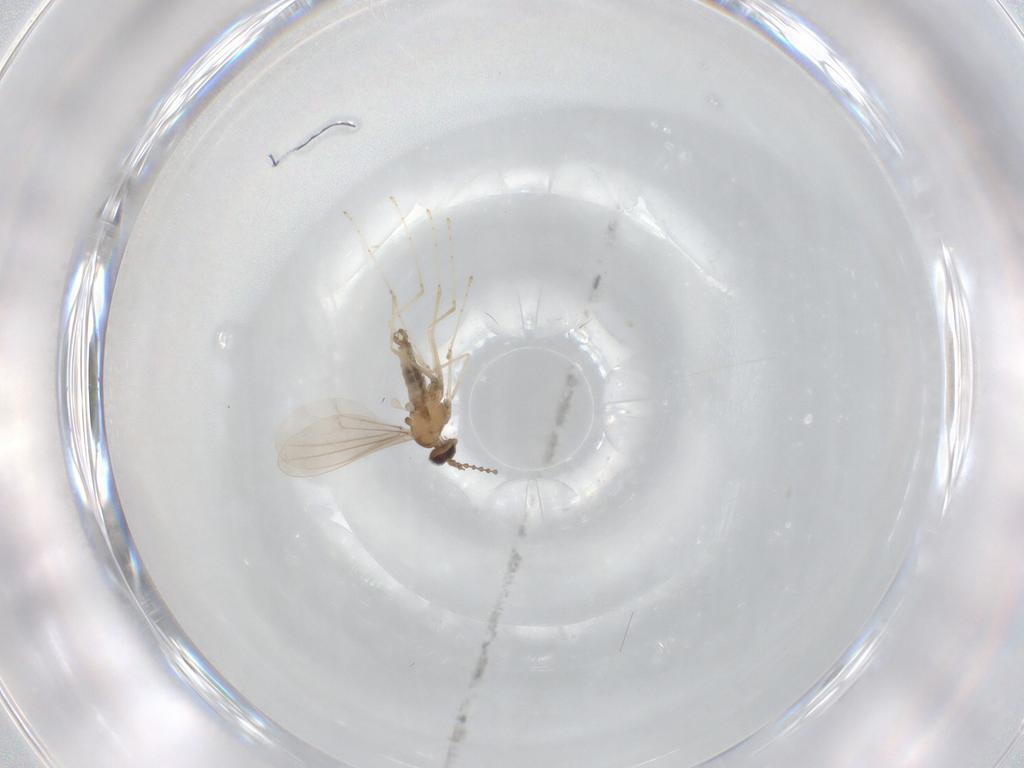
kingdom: Animalia
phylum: Arthropoda
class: Insecta
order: Diptera
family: Cecidomyiidae
